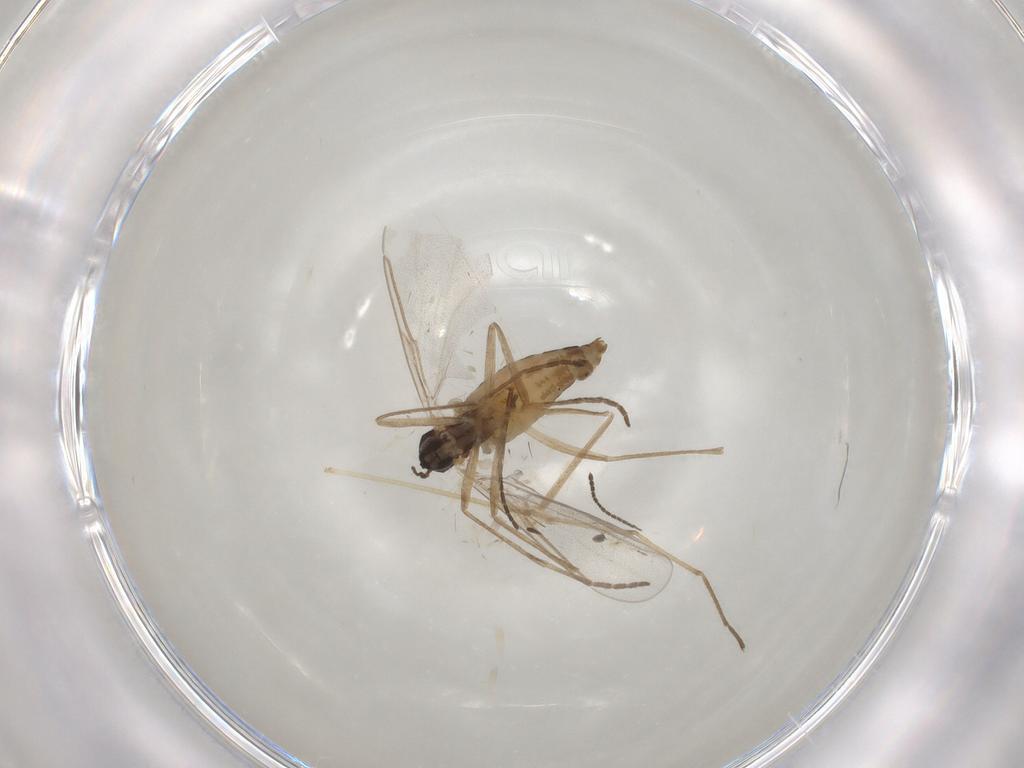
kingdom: Animalia
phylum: Arthropoda
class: Insecta
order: Diptera
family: Cecidomyiidae
